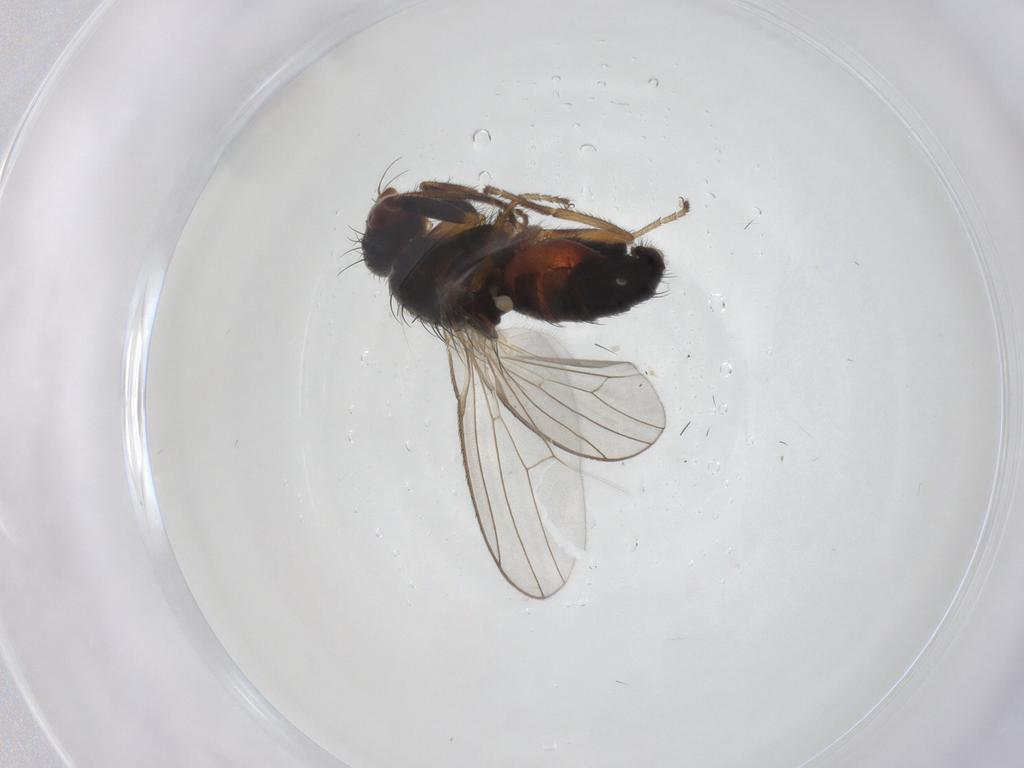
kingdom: Animalia
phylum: Arthropoda
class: Insecta
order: Diptera
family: Heleomyzidae
